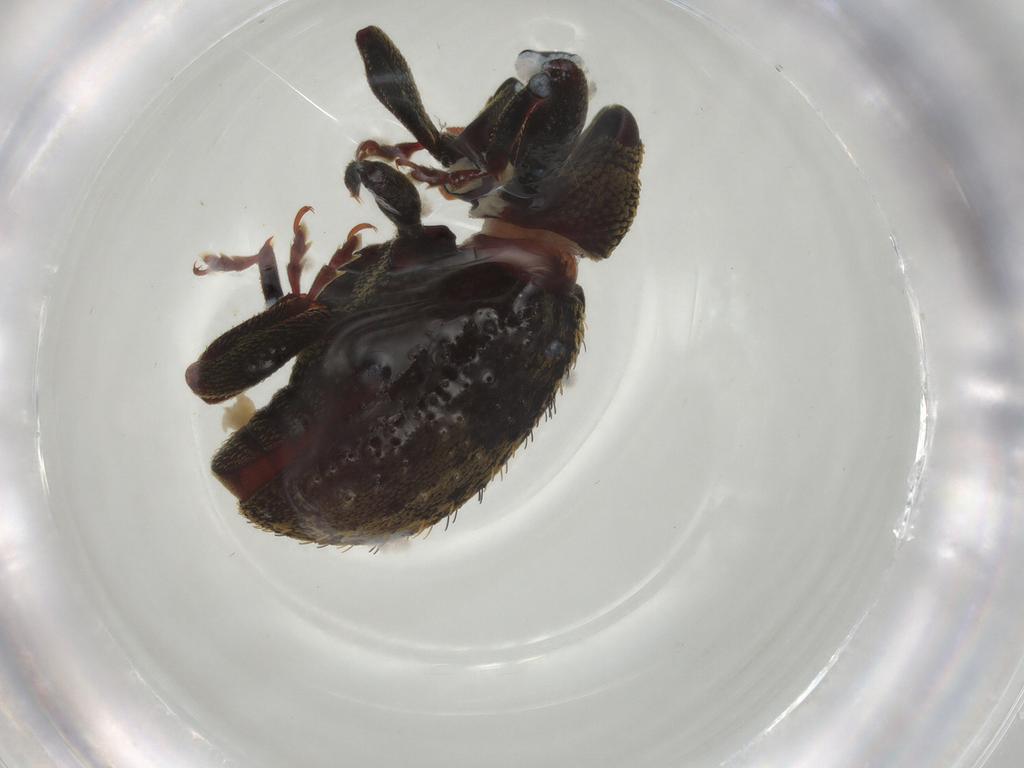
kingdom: Animalia
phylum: Arthropoda
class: Insecta
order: Coleoptera
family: Curculionidae
